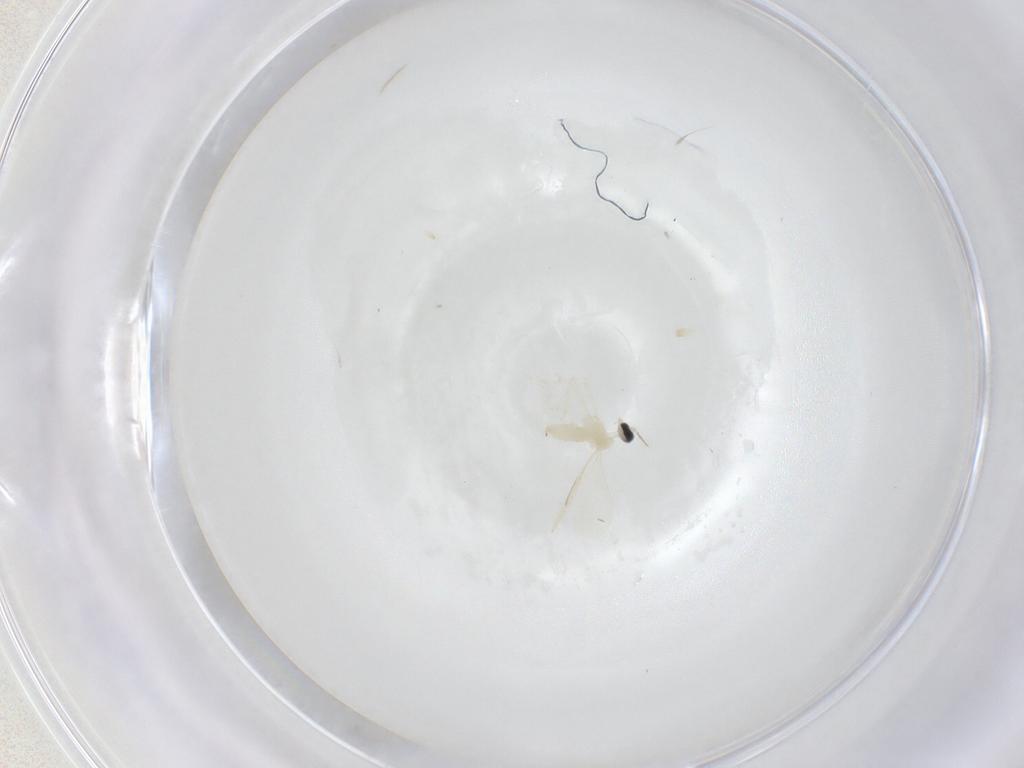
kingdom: Animalia
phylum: Arthropoda
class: Insecta
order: Diptera
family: Cecidomyiidae
